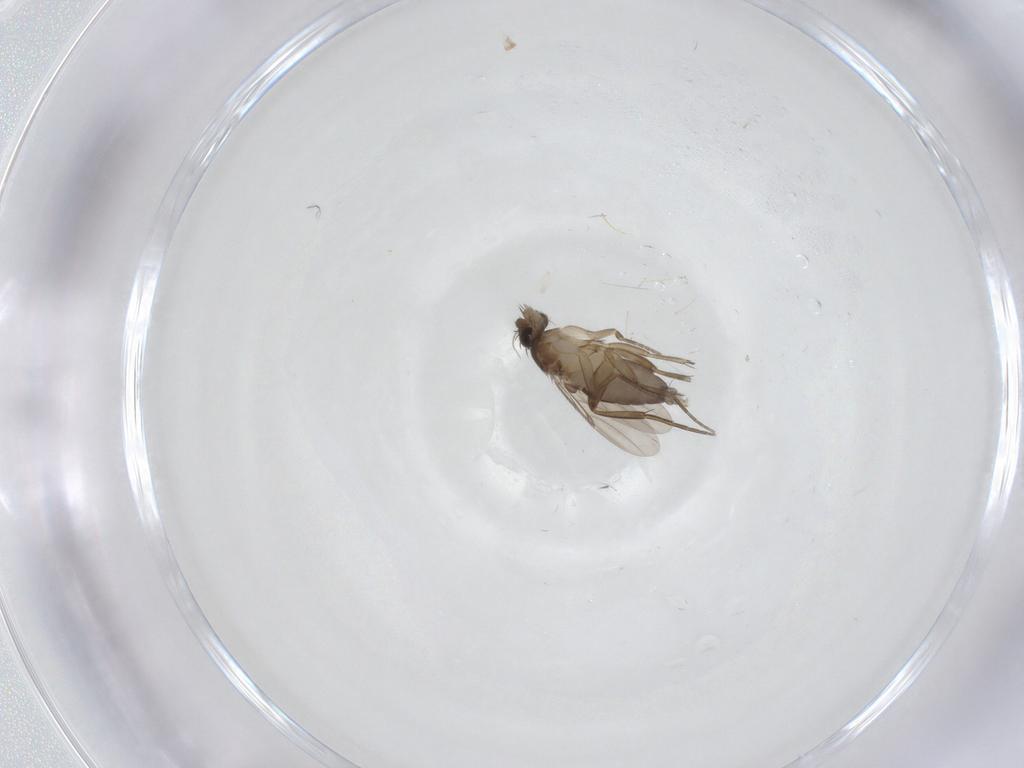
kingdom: Animalia
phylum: Arthropoda
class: Insecta
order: Diptera
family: Phoridae
